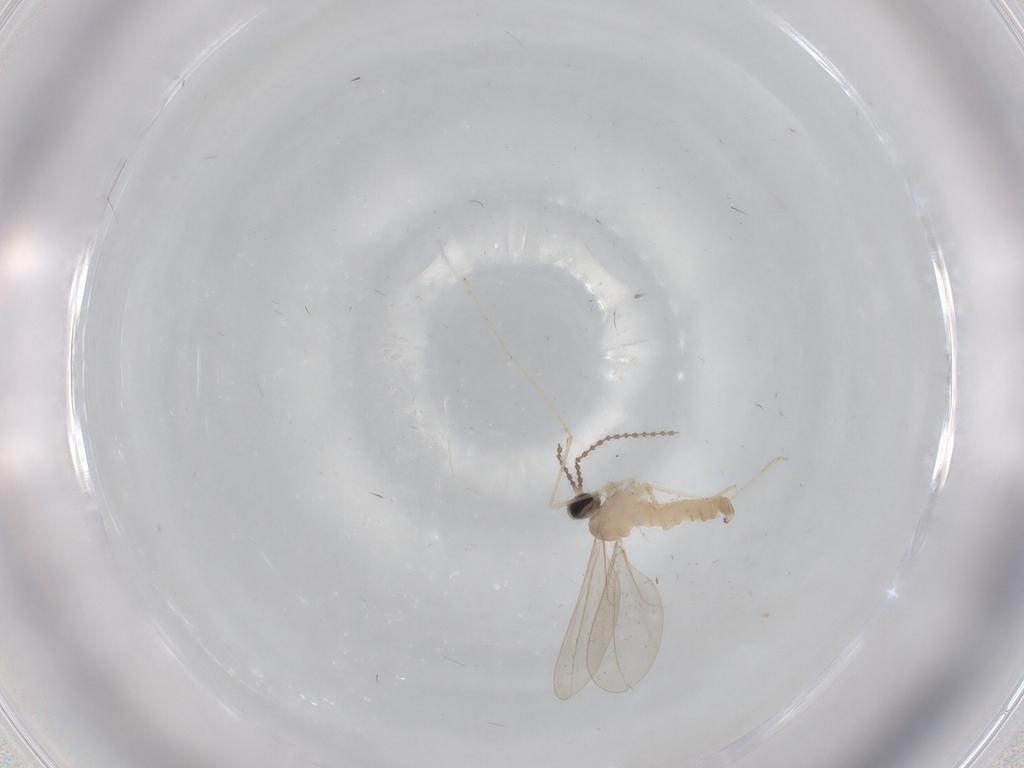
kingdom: Animalia
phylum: Arthropoda
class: Insecta
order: Diptera
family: Cecidomyiidae
